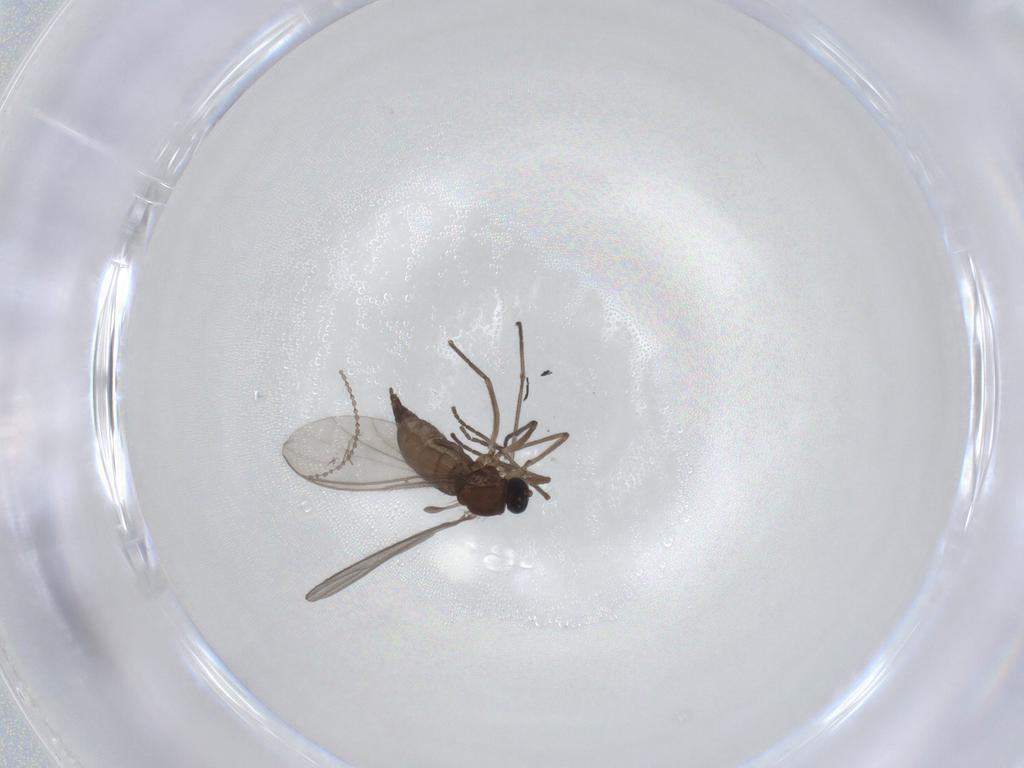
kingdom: Animalia
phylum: Arthropoda
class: Insecta
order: Diptera
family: Sciaridae
